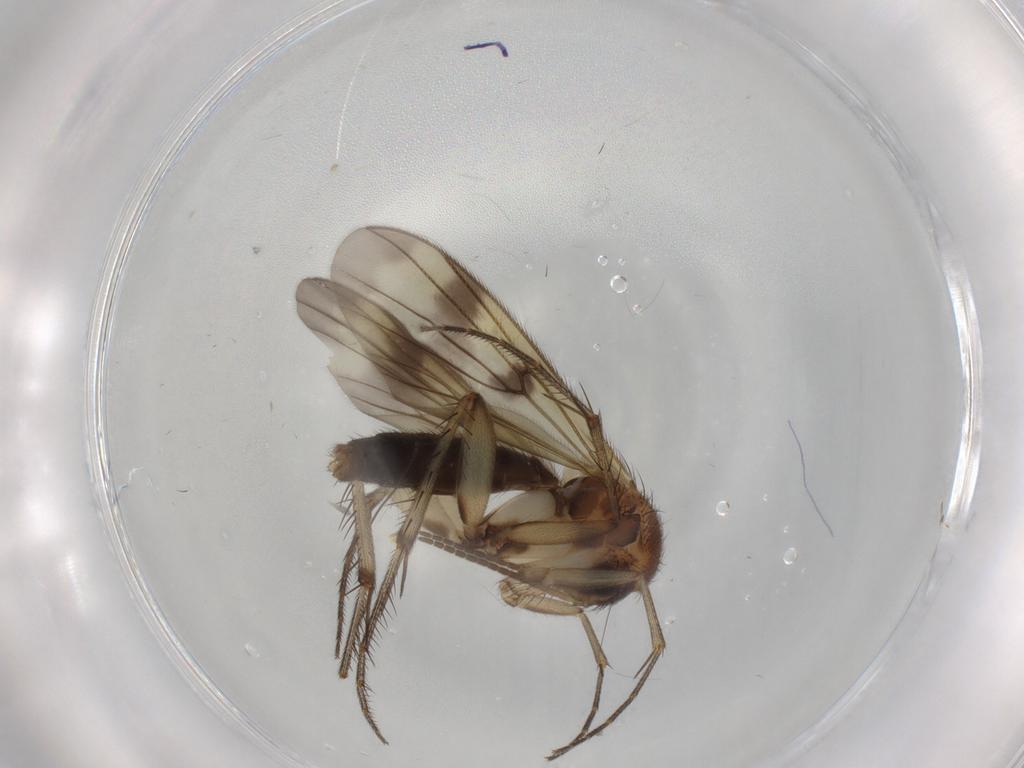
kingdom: Animalia
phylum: Arthropoda
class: Insecta
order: Diptera
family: Mycetophilidae
